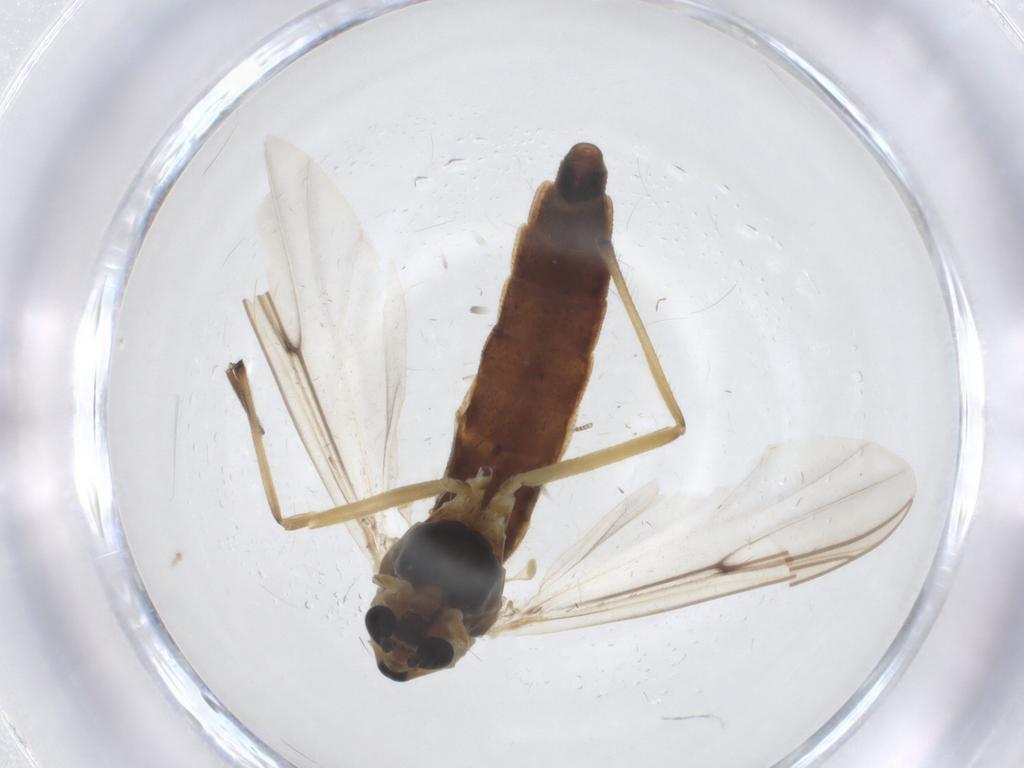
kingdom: Animalia
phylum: Arthropoda
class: Insecta
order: Diptera
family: Chironomidae
